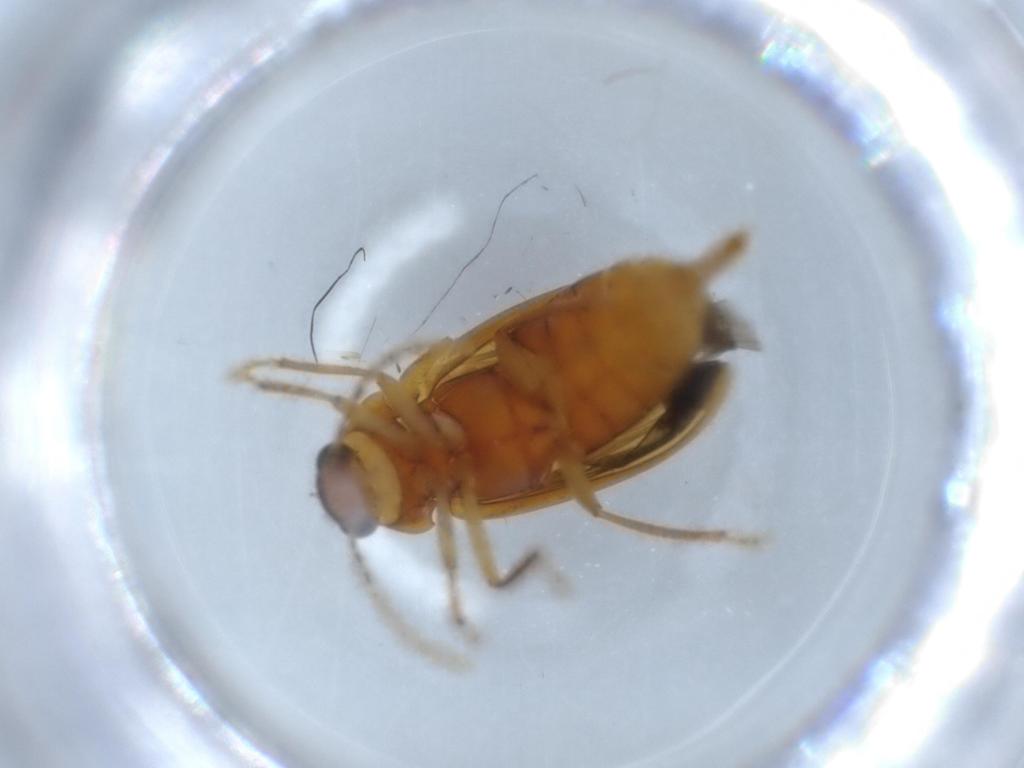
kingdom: Animalia
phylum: Arthropoda
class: Insecta
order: Coleoptera
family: Ptilodactylidae
